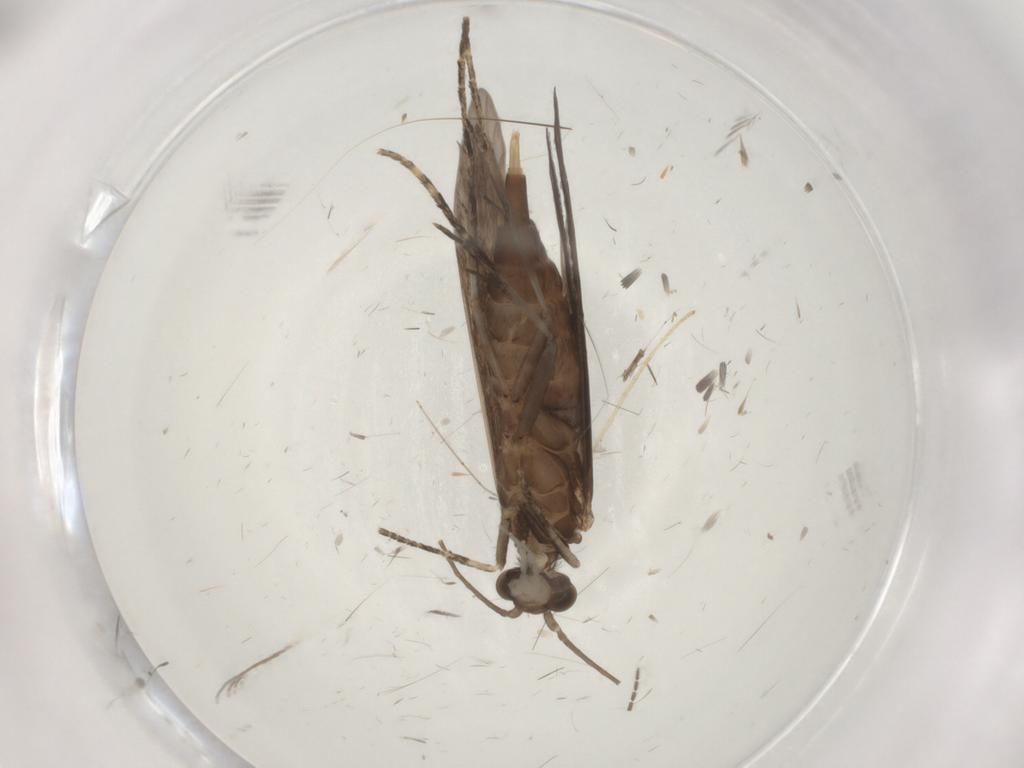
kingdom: Animalia
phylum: Arthropoda
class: Insecta
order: Trichoptera
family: Xiphocentronidae
